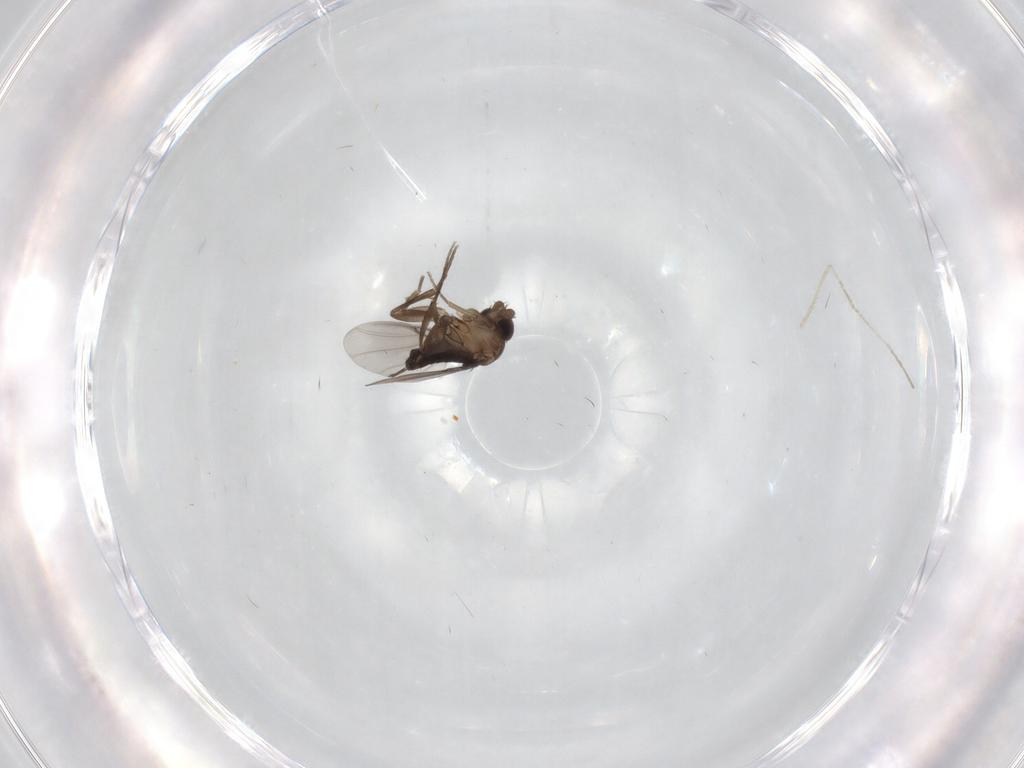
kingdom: Animalia
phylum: Arthropoda
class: Insecta
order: Diptera
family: Phoridae
